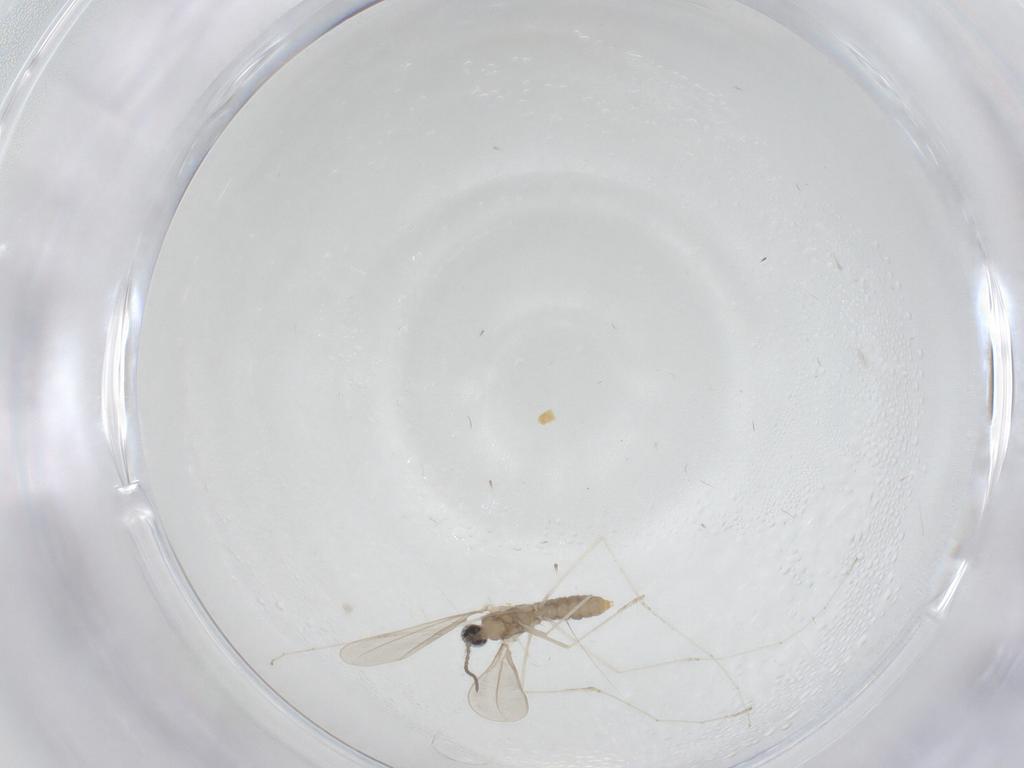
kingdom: Animalia
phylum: Arthropoda
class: Insecta
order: Diptera
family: Cecidomyiidae
